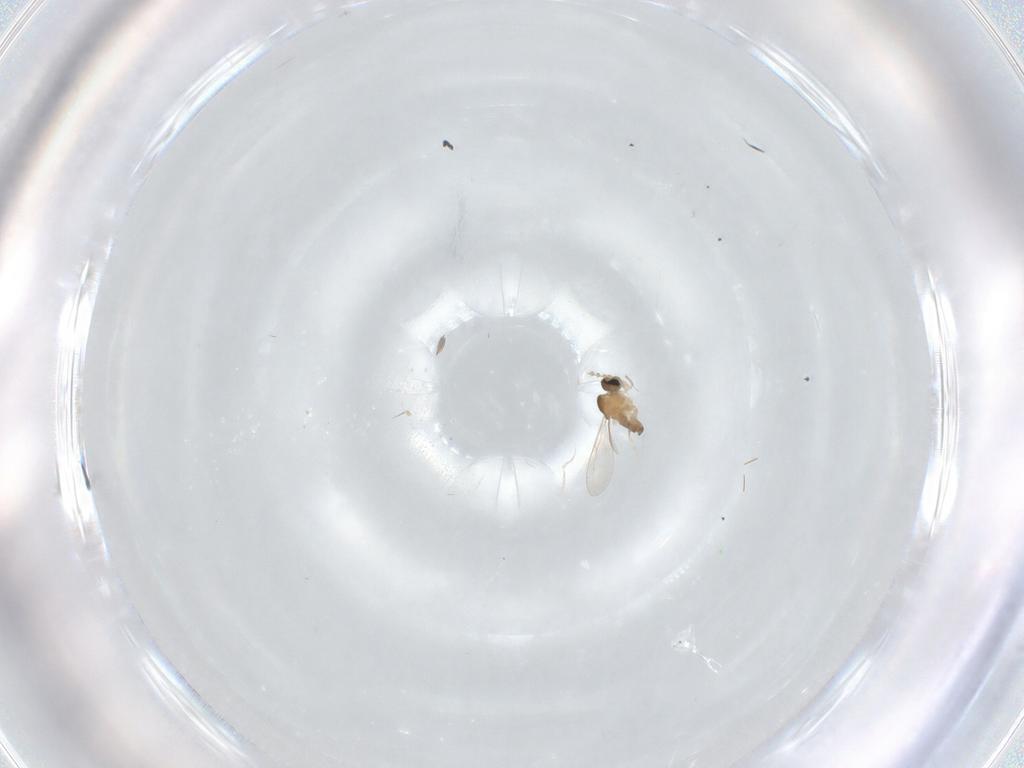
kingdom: Animalia
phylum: Arthropoda
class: Insecta
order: Diptera
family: Cecidomyiidae
